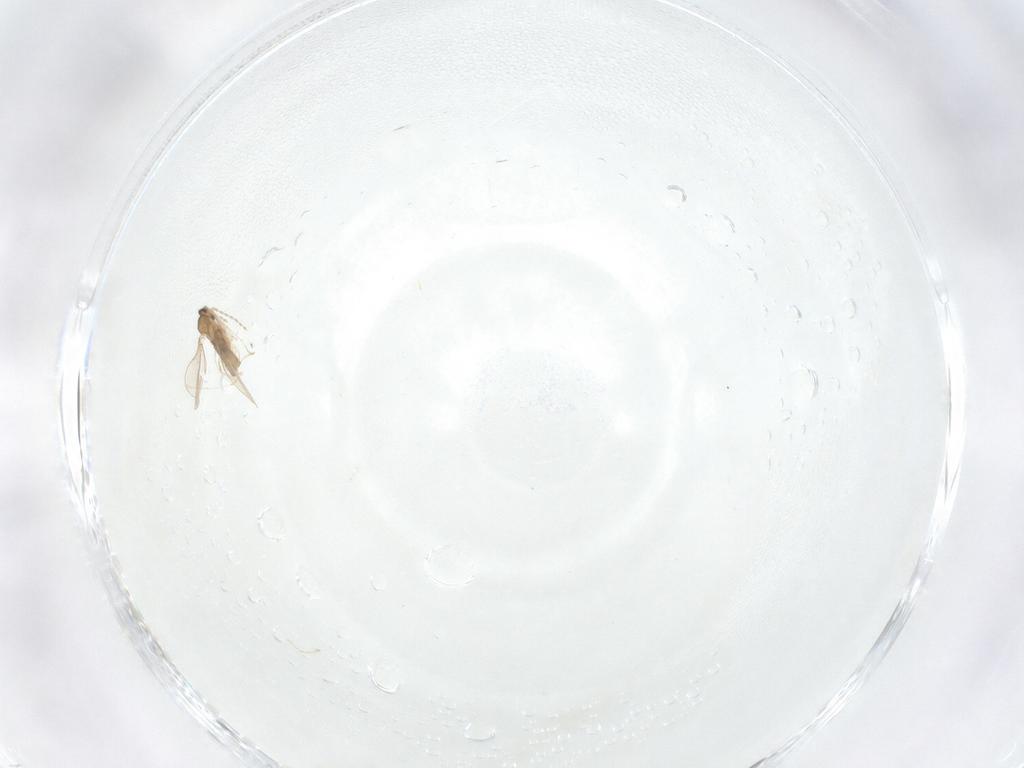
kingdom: Animalia
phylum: Arthropoda
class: Insecta
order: Diptera
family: Cecidomyiidae
